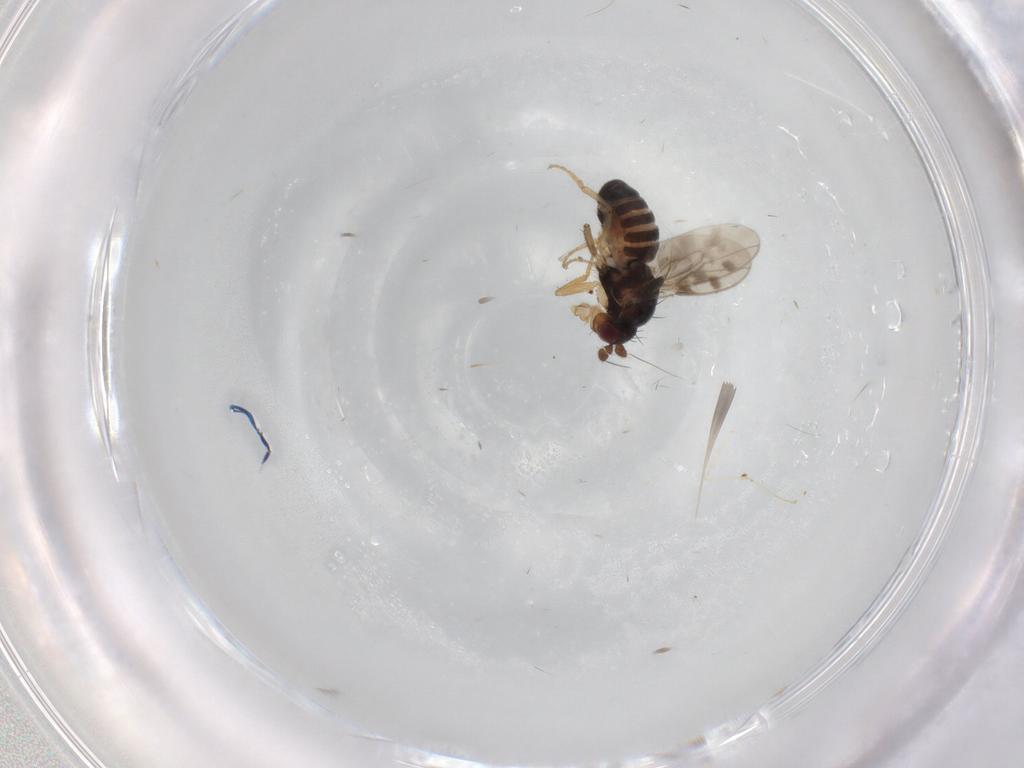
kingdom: Animalia
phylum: Arthropoda
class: Insecta
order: Diptera
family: Sphaeroceridae
